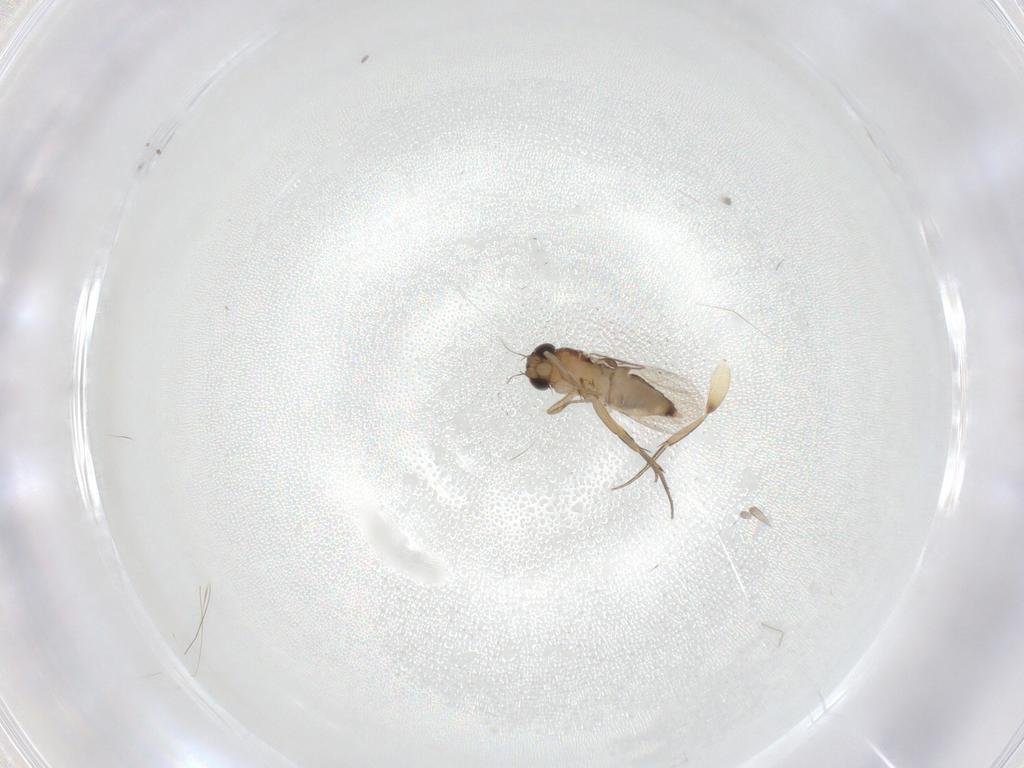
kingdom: Animalia
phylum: Arthropoda
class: Insecta
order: Diptera
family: Phoridae
